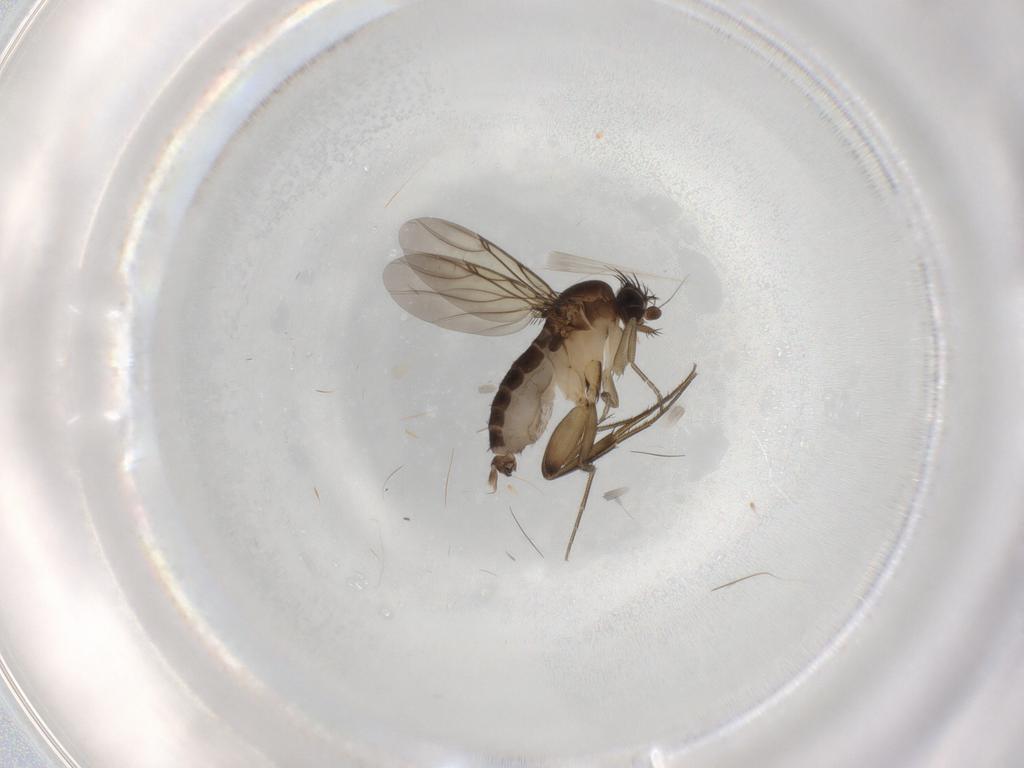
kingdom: Animalia
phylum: Arthropoda
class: Insecta
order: Diptera
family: Phoridae
